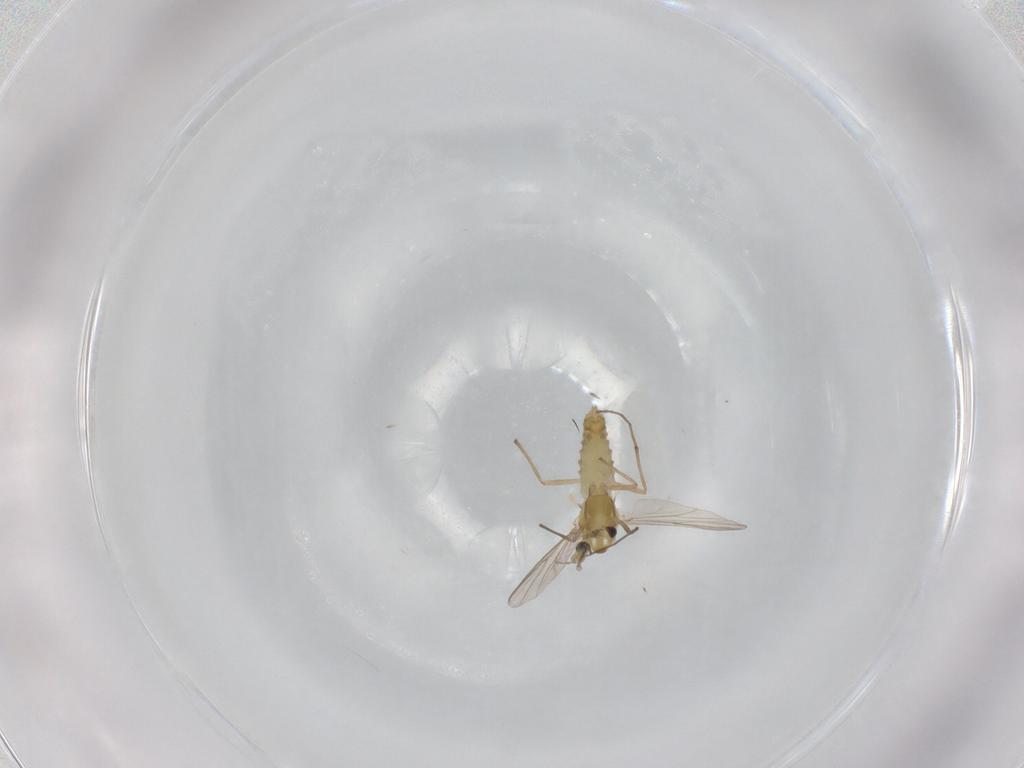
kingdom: Animalia
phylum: Arthropoda
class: Insecta
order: Diptera
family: Chironomidae
